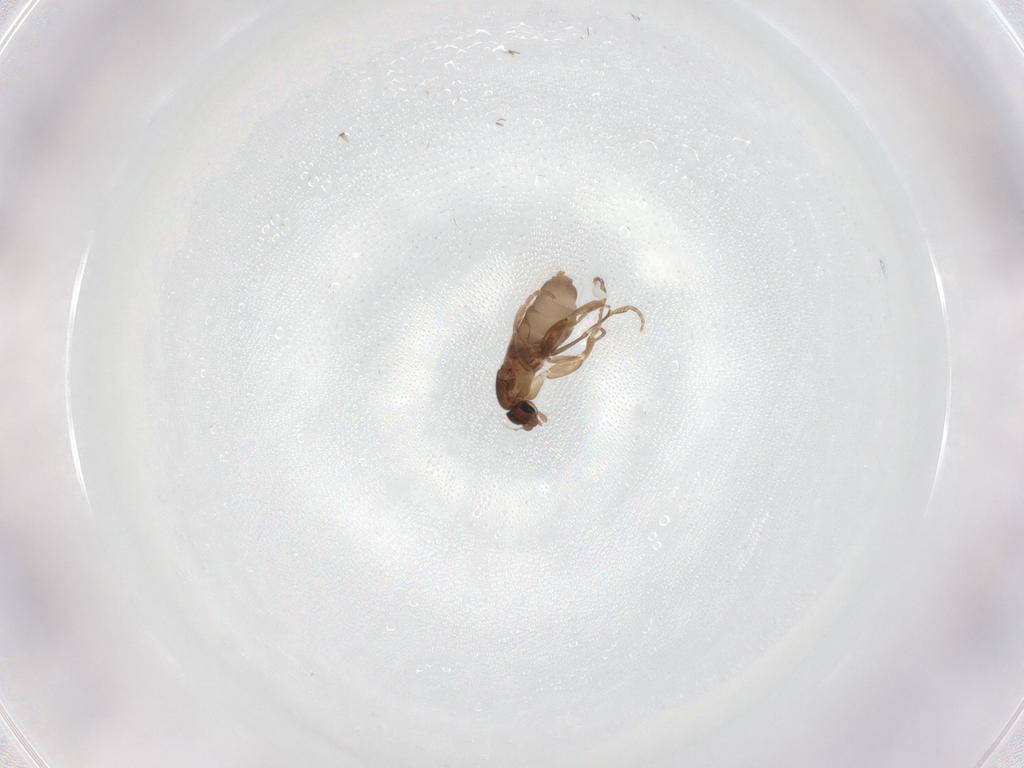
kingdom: Animalia
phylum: Arthropoda
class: Insecta
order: Diptera
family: Phoridae
